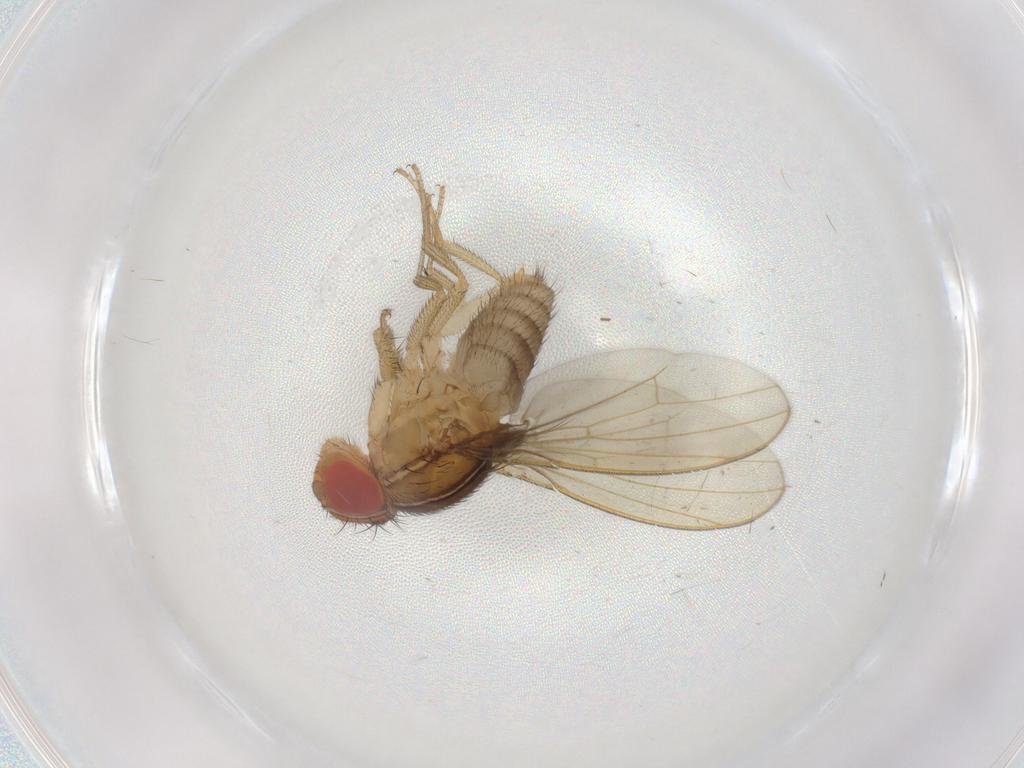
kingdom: Animalia
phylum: Arthropoda
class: Insecta
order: Diptera
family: Drosophilidae
